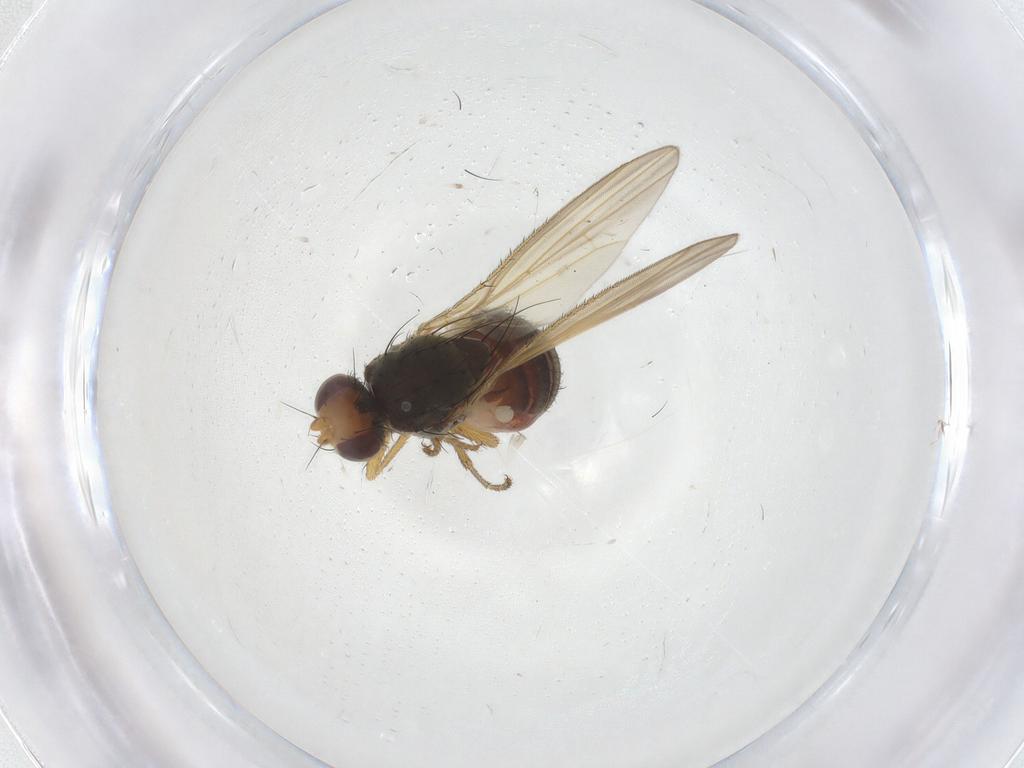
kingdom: Animalia
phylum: Arthropoda
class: Insecta
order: Diptera
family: Heleomyzidae
